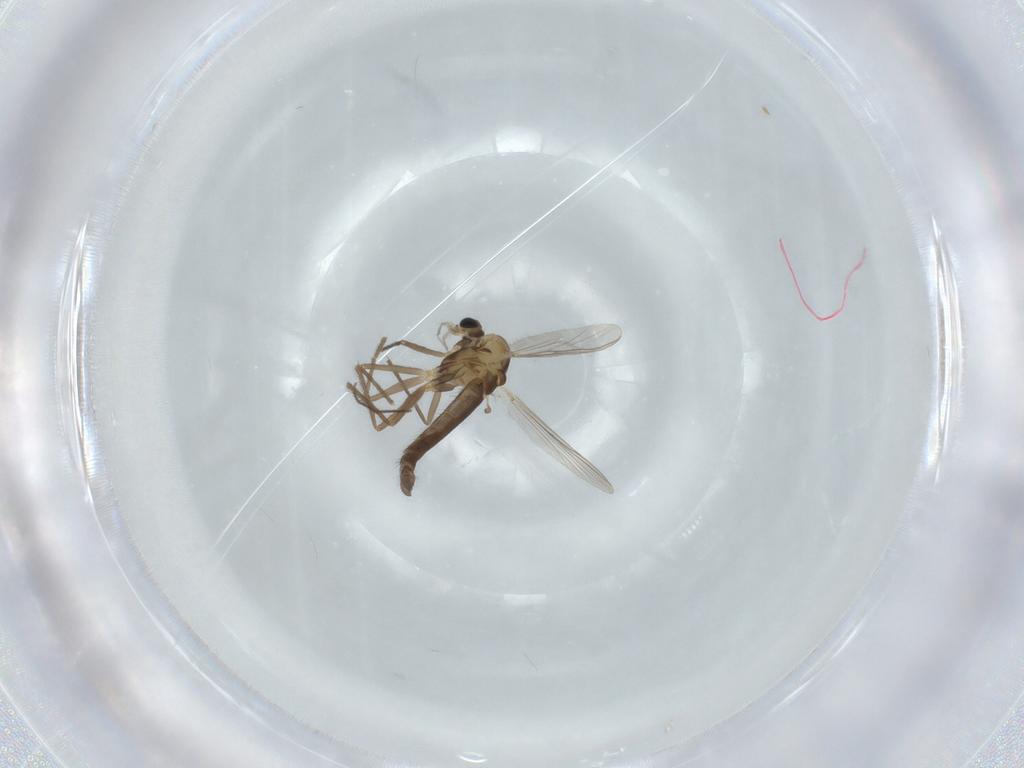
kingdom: Animalia
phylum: Arthropoda
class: Insecta
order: Diptera
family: Chironomidae
